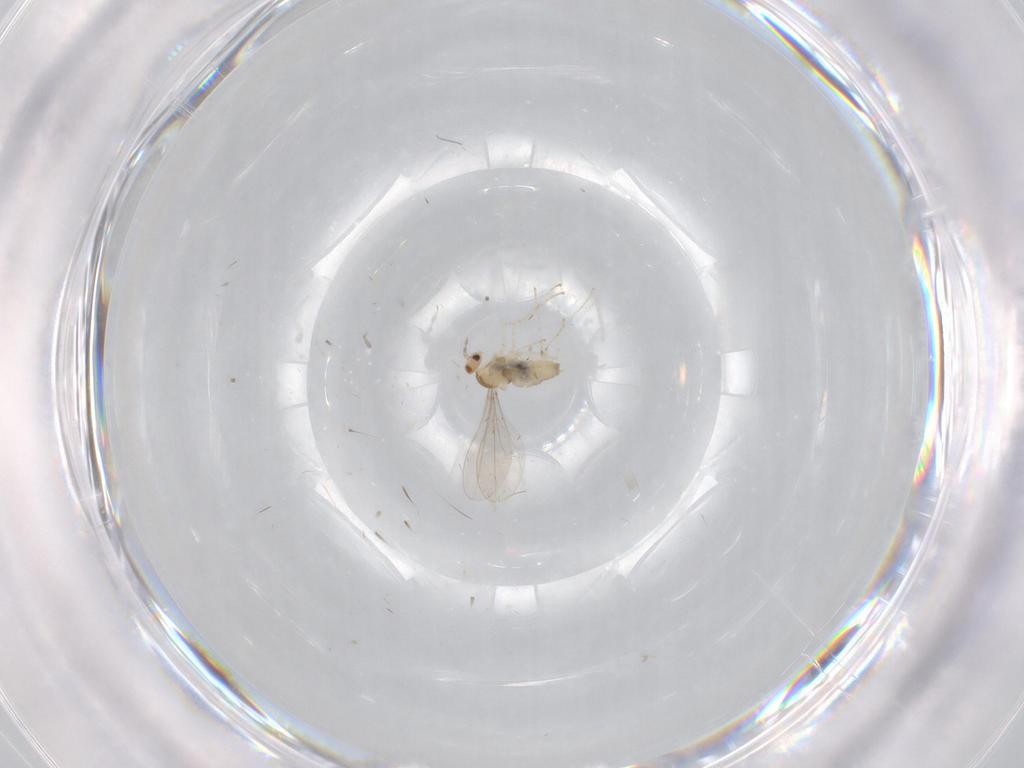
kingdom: Animalia
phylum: Arthropoda
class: Insecta
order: Diptera
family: Cecidomyiidae
